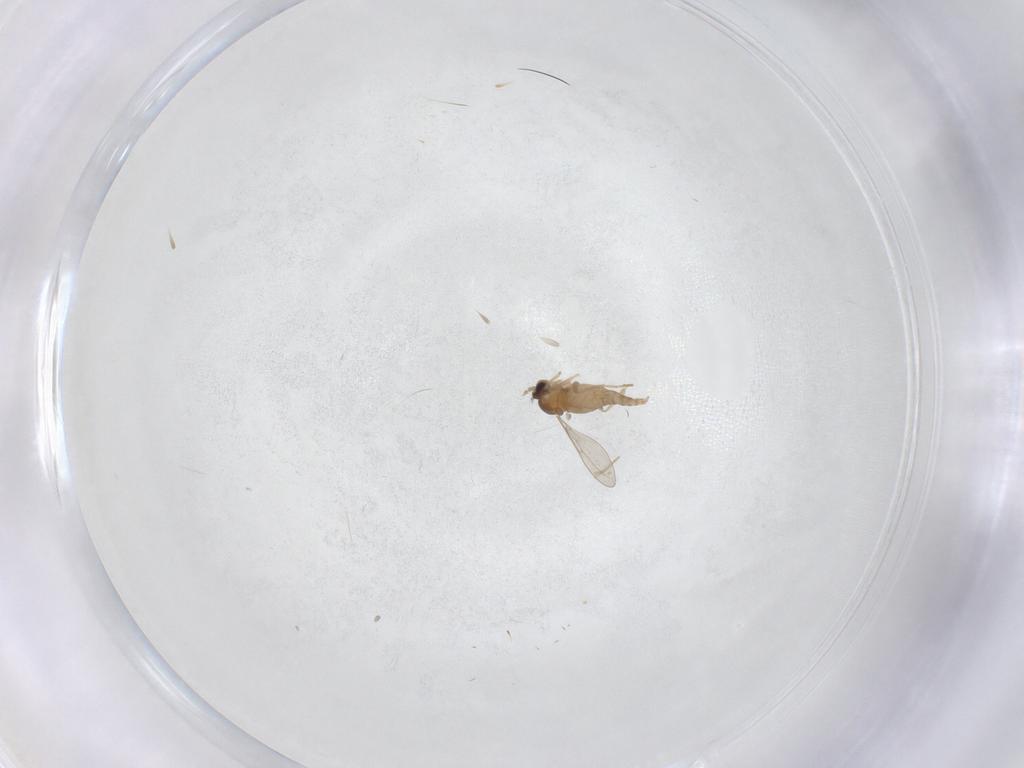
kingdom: Animalia
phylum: Arthropoda
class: Insecta
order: Diptera
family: Cecidomyiidae
